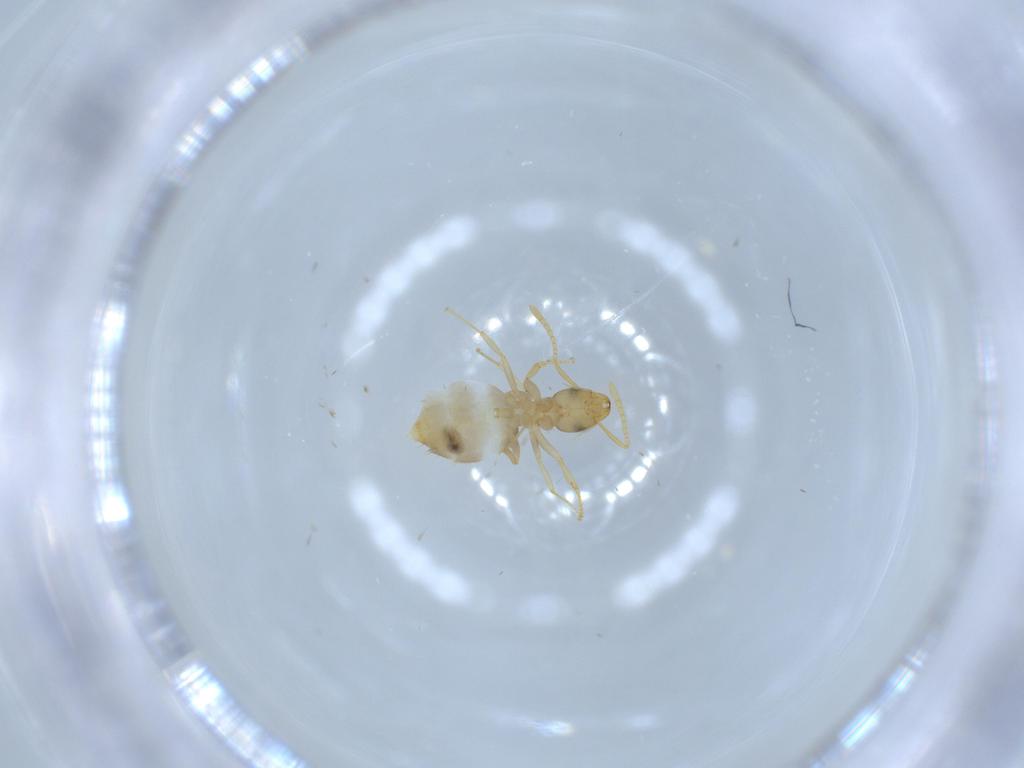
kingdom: Animalia
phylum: Arthropoda
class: Insecta
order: Hymenoptera
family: Formicidae
